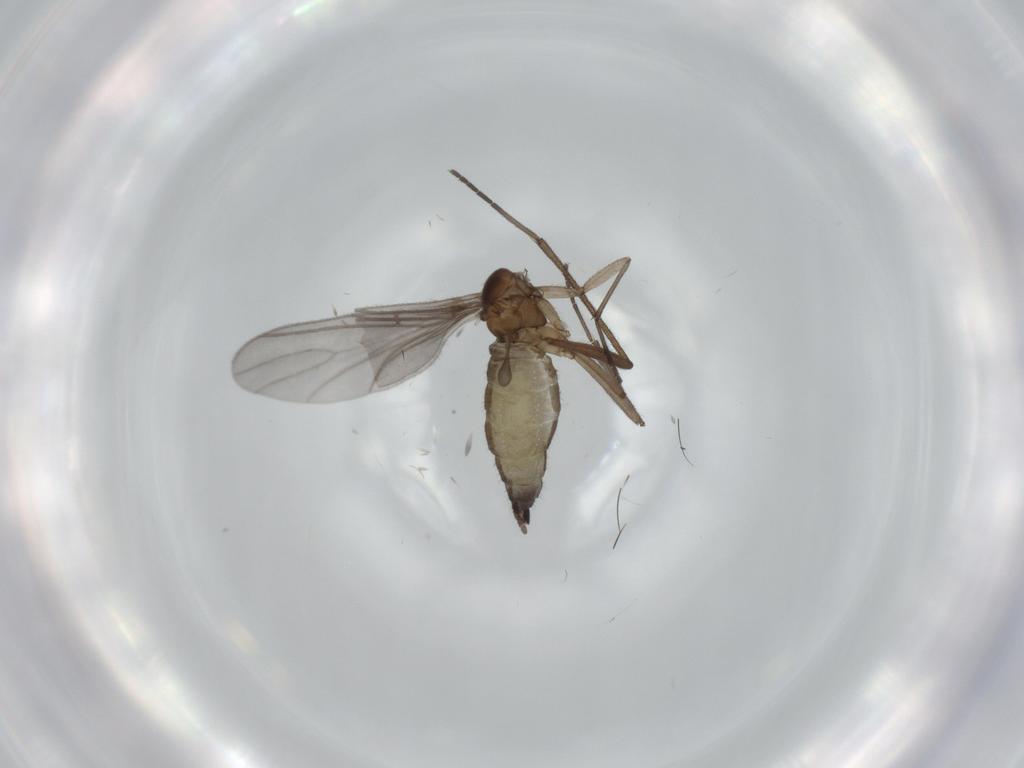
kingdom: Animalia
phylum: Arthropoda
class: Insecta
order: Diptera
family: Sciaridae
